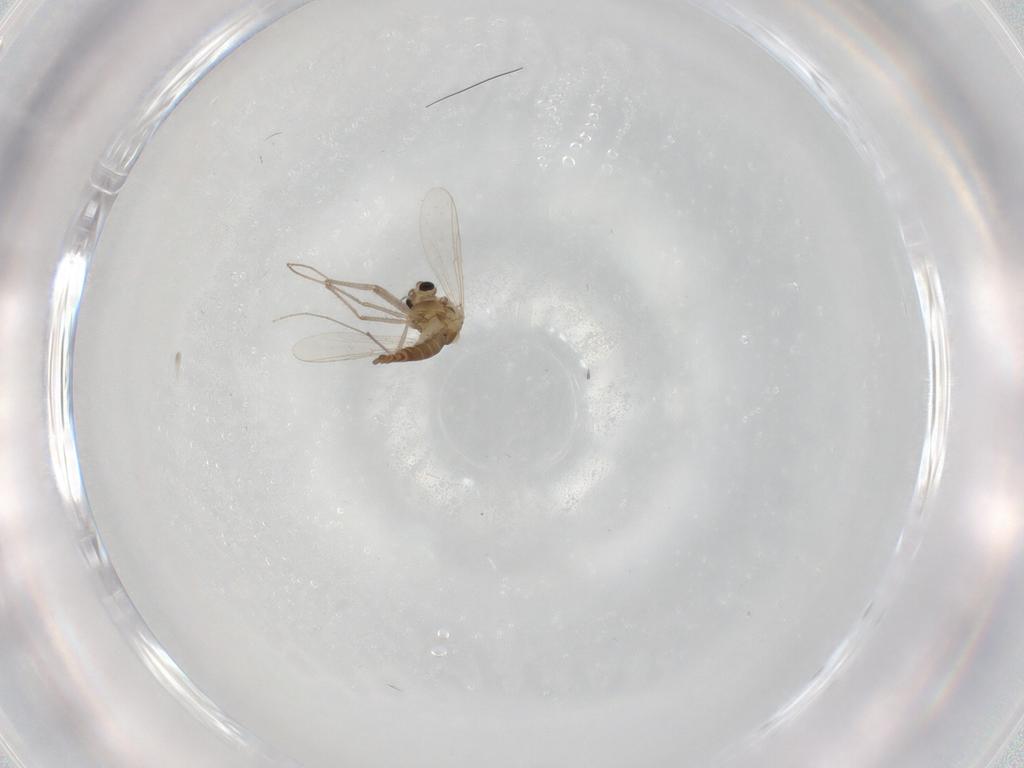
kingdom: Animalia
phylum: Arthropoda
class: Insecta
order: Diptera
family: Chironomidae
